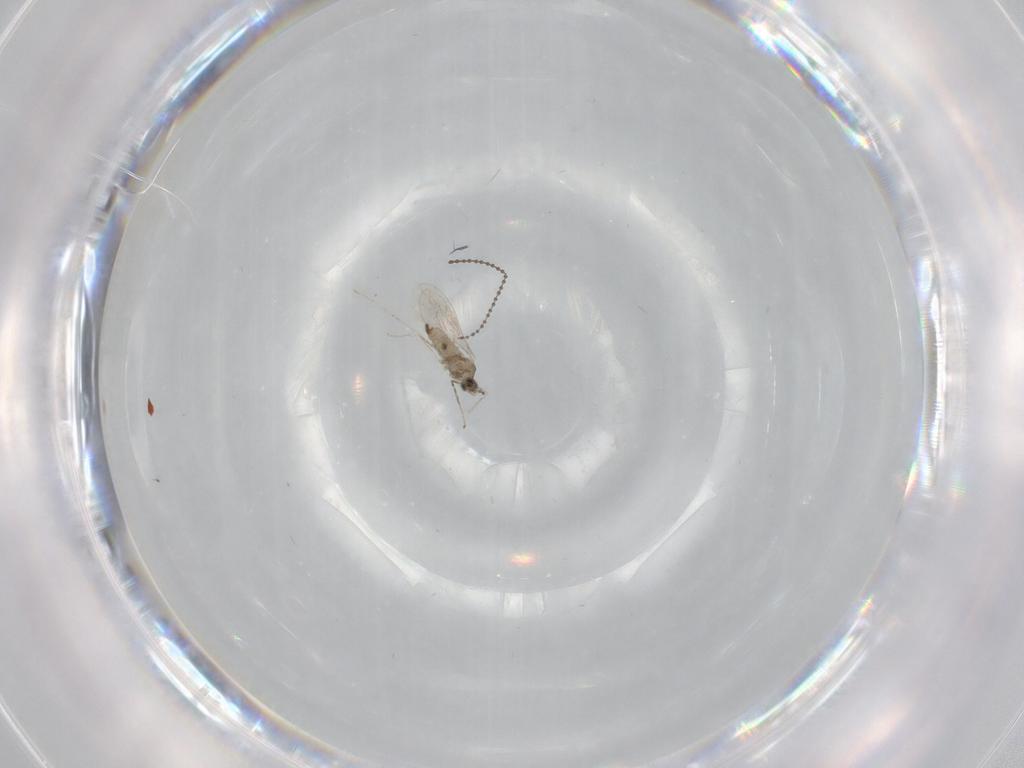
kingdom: Animalia
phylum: Arthropoda
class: Insecta
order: Diptera
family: Cecidomyiidae
